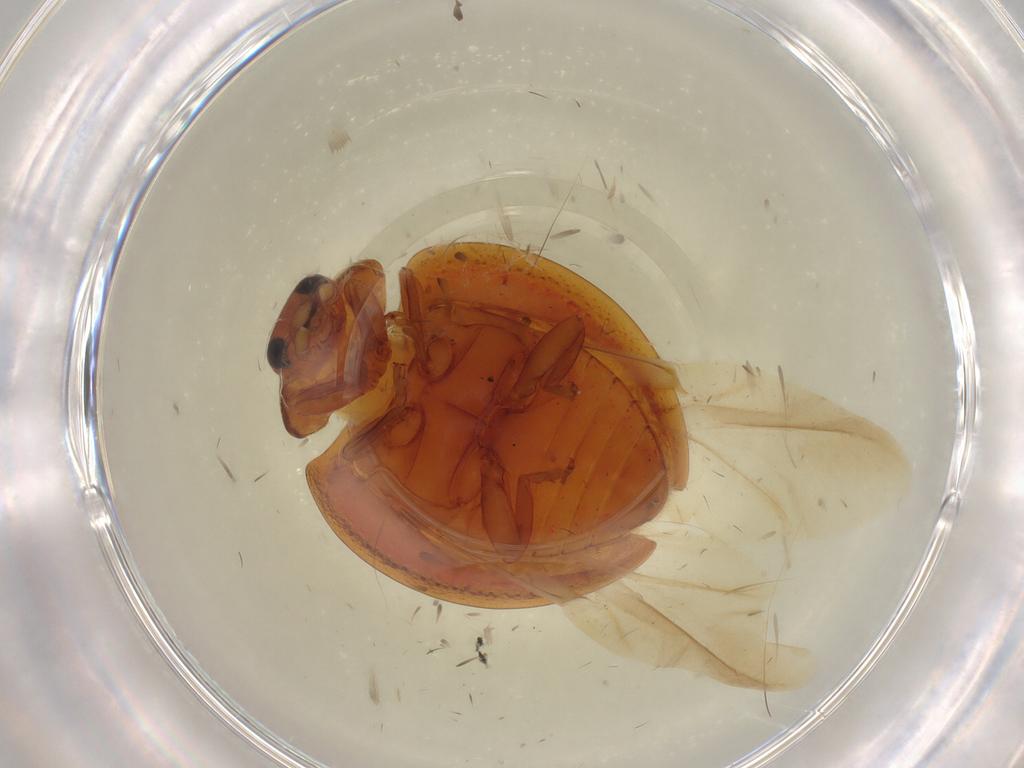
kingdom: Animalia
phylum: Arthropoda
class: Insecta
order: Coleoptera
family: Coccinellidae
